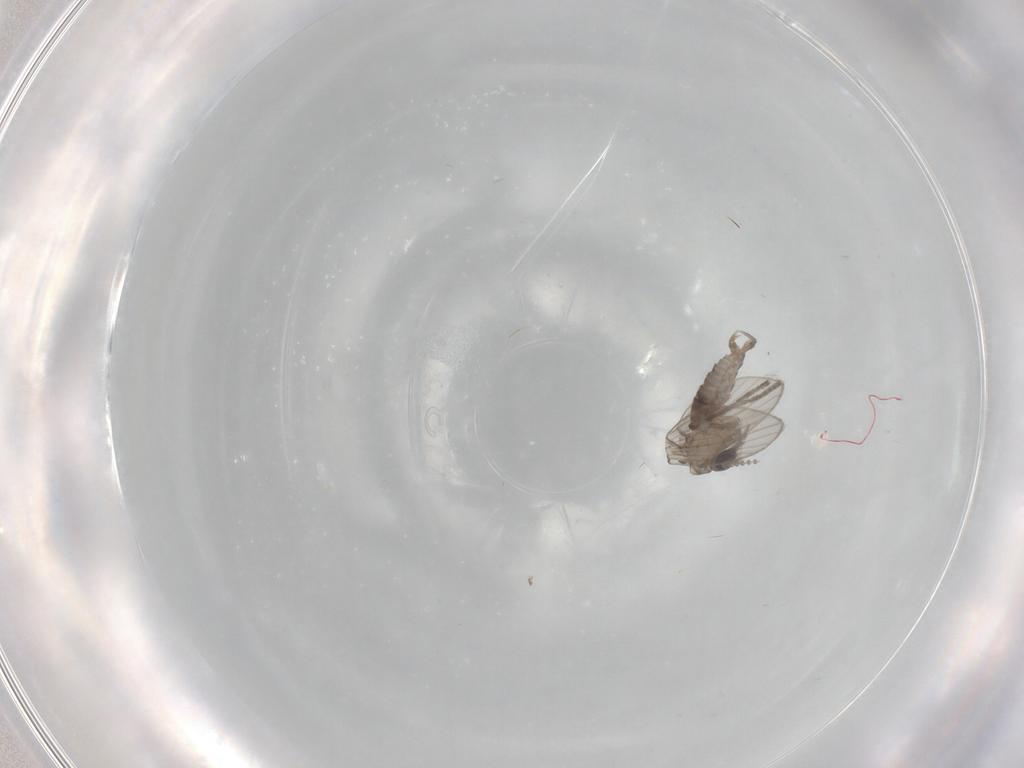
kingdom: Animalia
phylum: Arthropoda
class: Insecta
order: Diptera
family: Psychodidae
